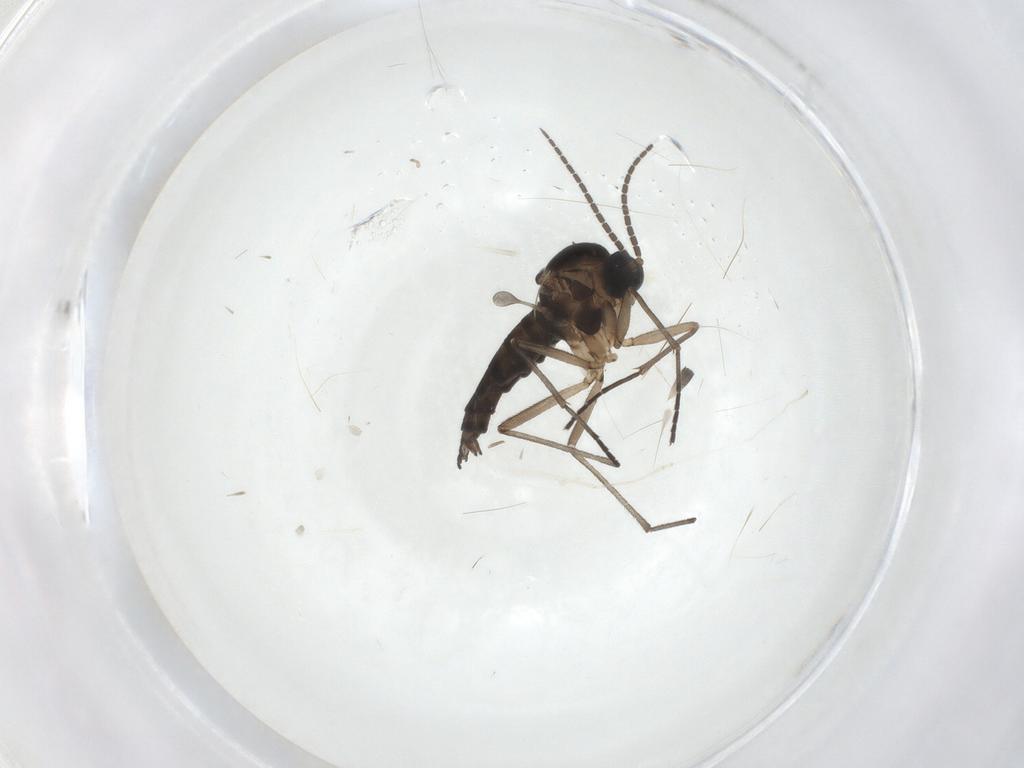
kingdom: Animalia
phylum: Arthropoda
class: Insecta
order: Diptera
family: Sciaridae
